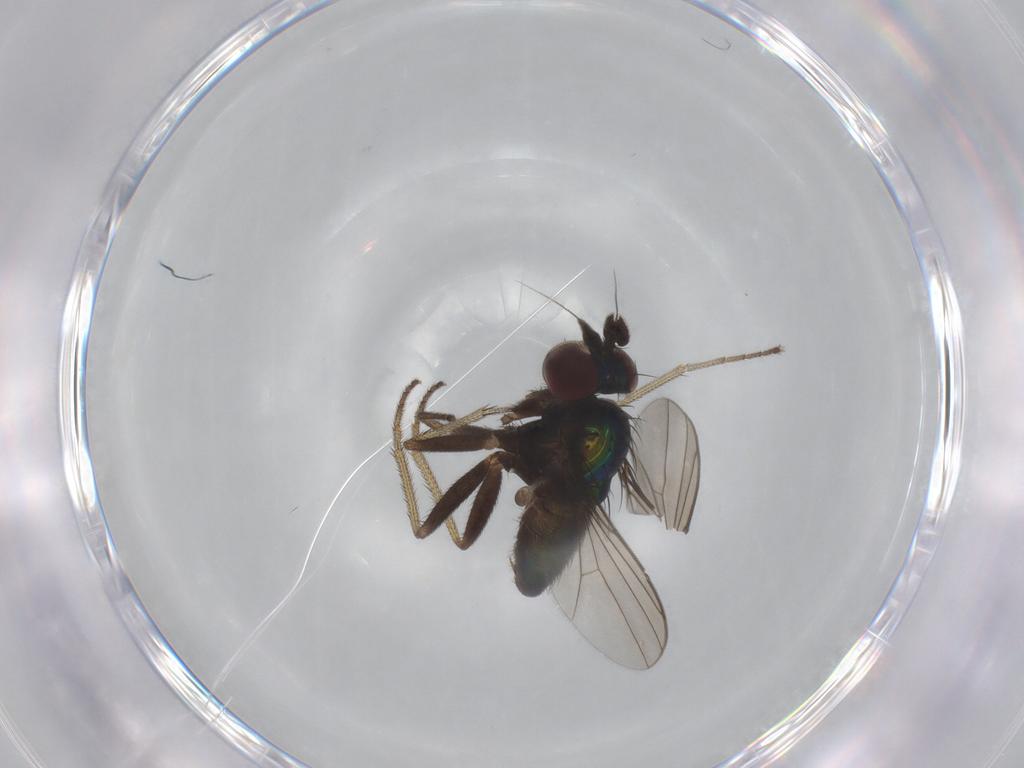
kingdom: Animalia
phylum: Arthropoda
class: Insecta
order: Diptera
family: Dolichopodidae
